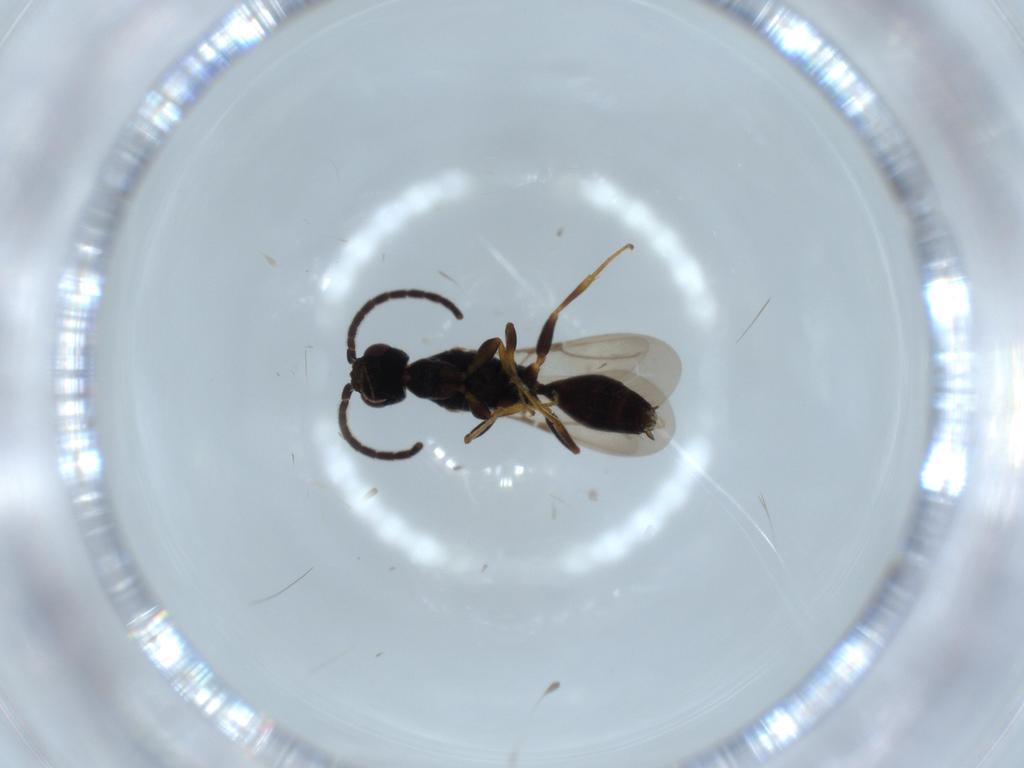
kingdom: Animalia
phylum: Arthropoda
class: Insecta
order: Hymenoptera
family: Bethylidae
